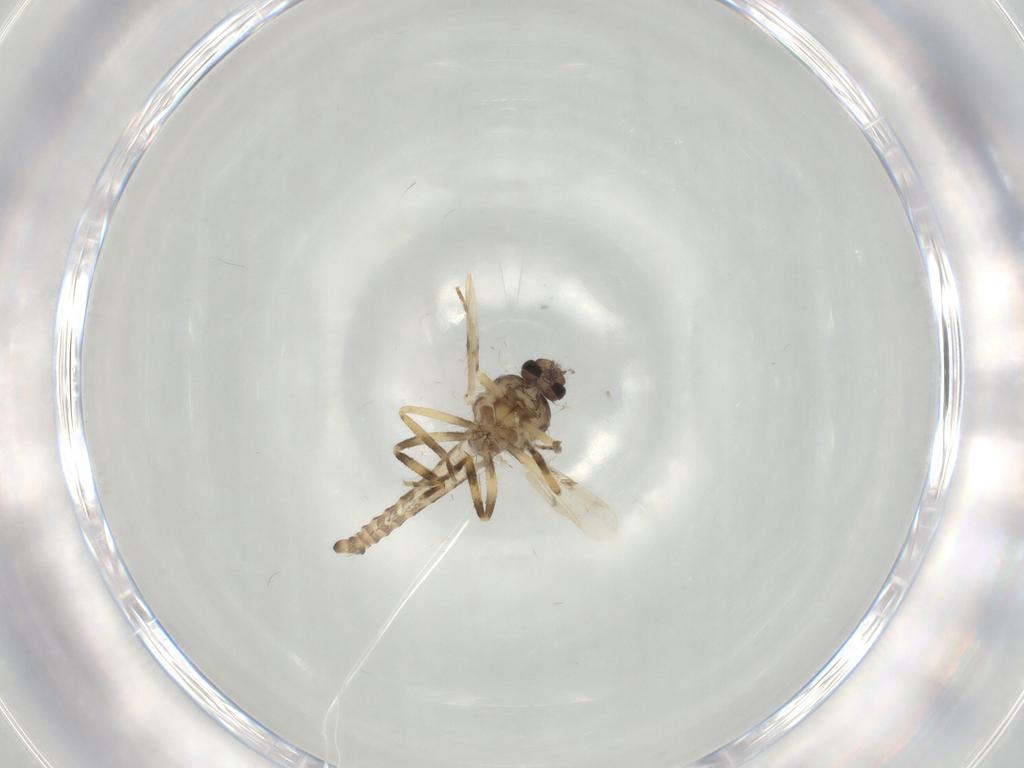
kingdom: Animalia
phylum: Arthropoda
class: Insecta
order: Diptera
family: Ceratopogonidae
